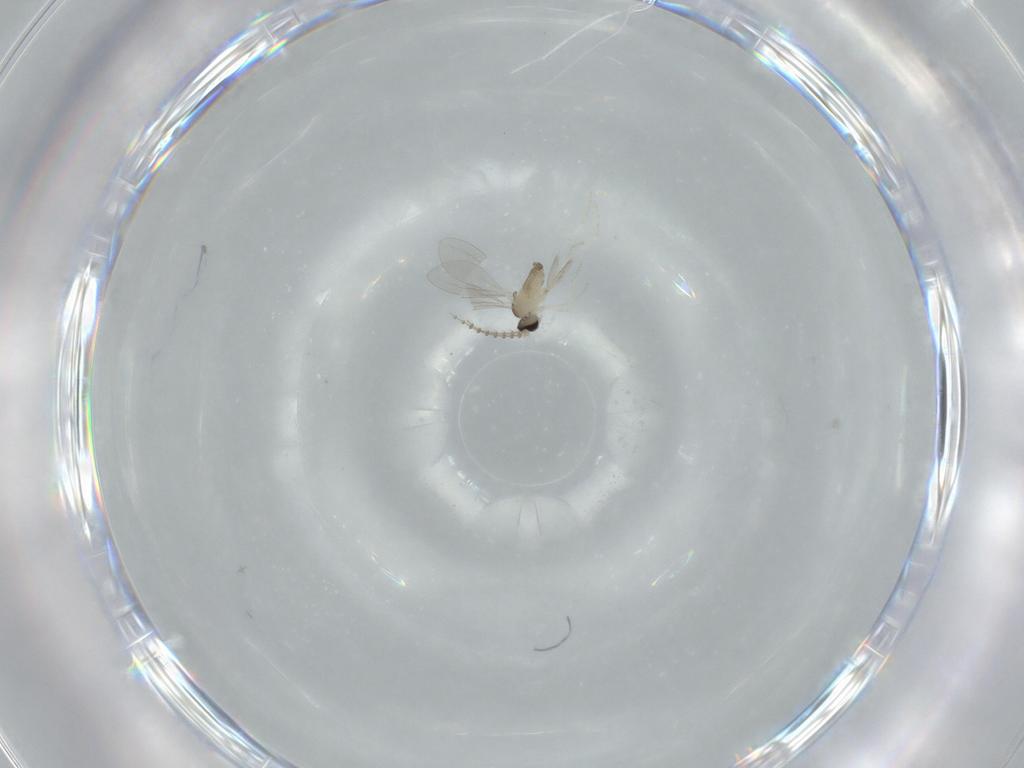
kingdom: Animalia
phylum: Arthropoda
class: Insecta
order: Diptera
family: Cecidomyiidae
